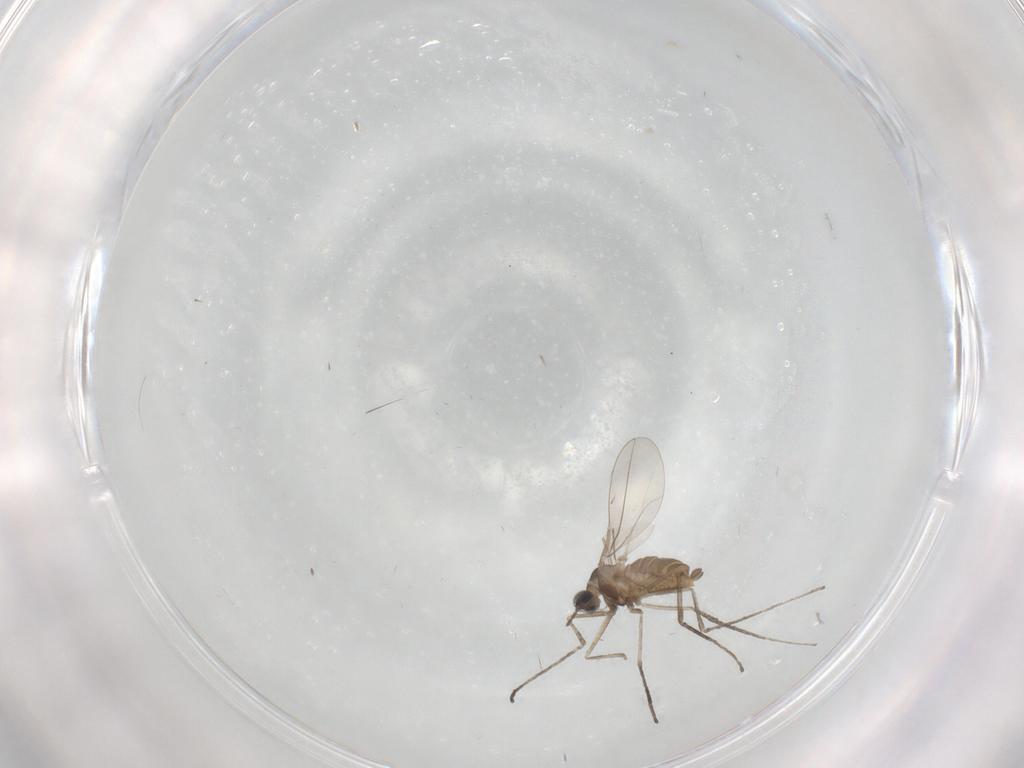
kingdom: Animalia
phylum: Arthropoda
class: Insecta
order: Diptera
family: Cecidomyiidae
